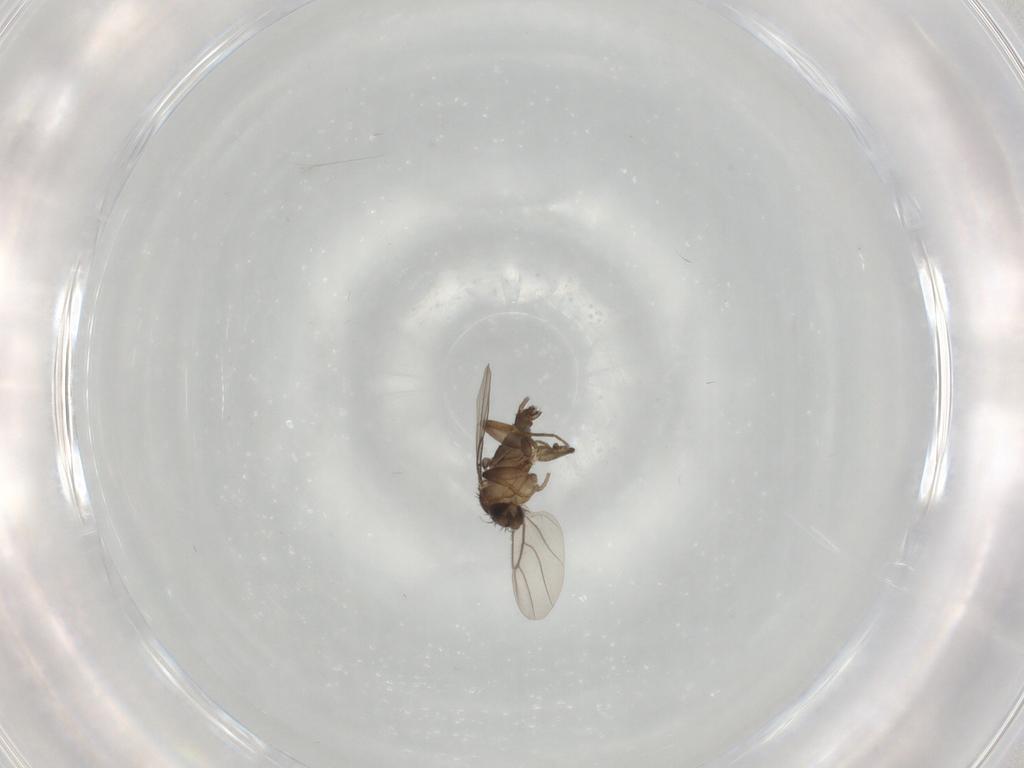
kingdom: Animalia
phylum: Arthropoda
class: Insecta
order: Diptera
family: Phoridae
